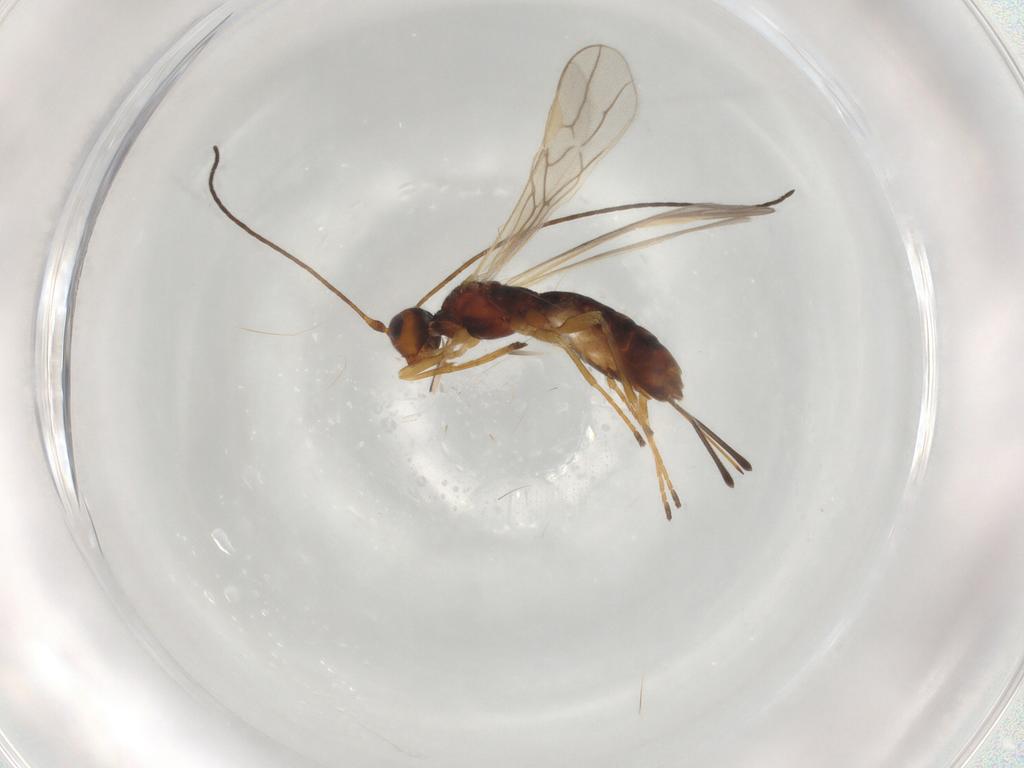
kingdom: Animalia
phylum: Arthropoda
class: Insecta
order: Hymenoptera
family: Braconidae
